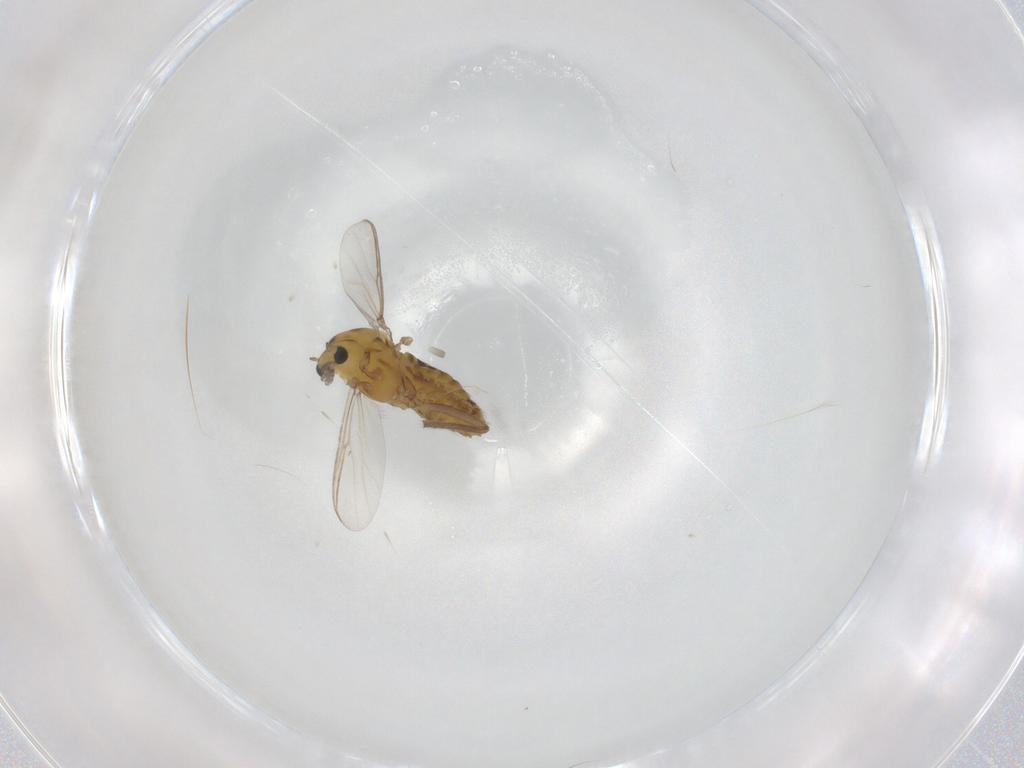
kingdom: Animalia
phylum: Arthropoda
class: Insecta
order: Diptera
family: Chironomidae
